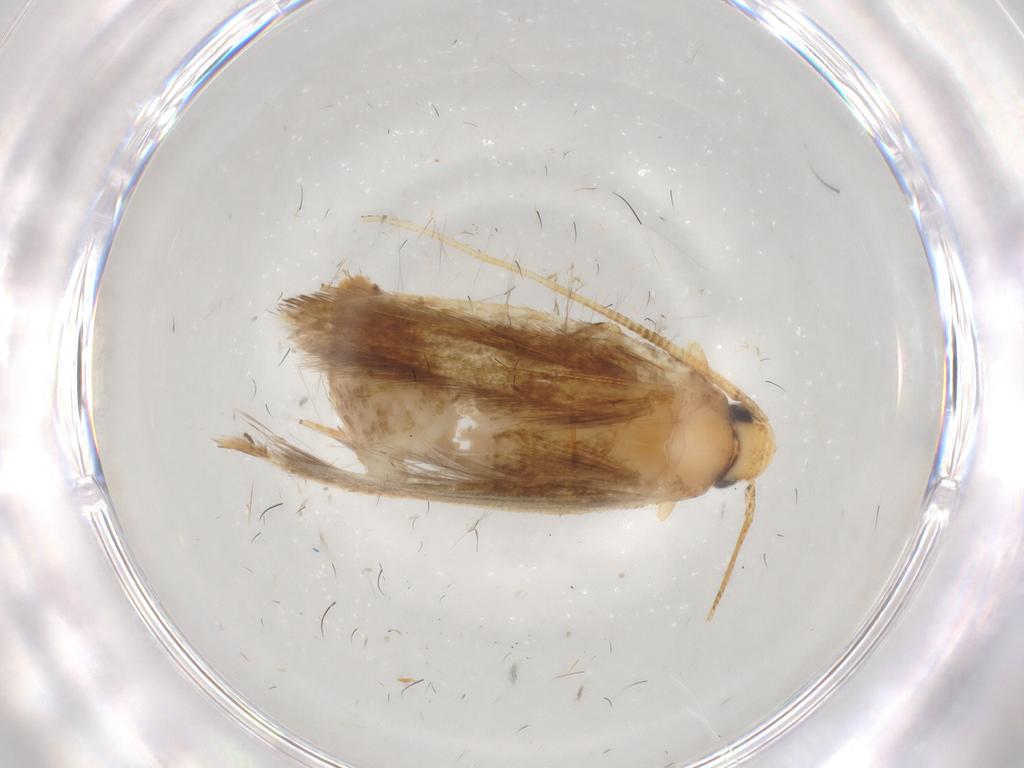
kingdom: Animalia
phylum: Arthropoda
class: Insecta
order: Lepidoptera
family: Tineidae
